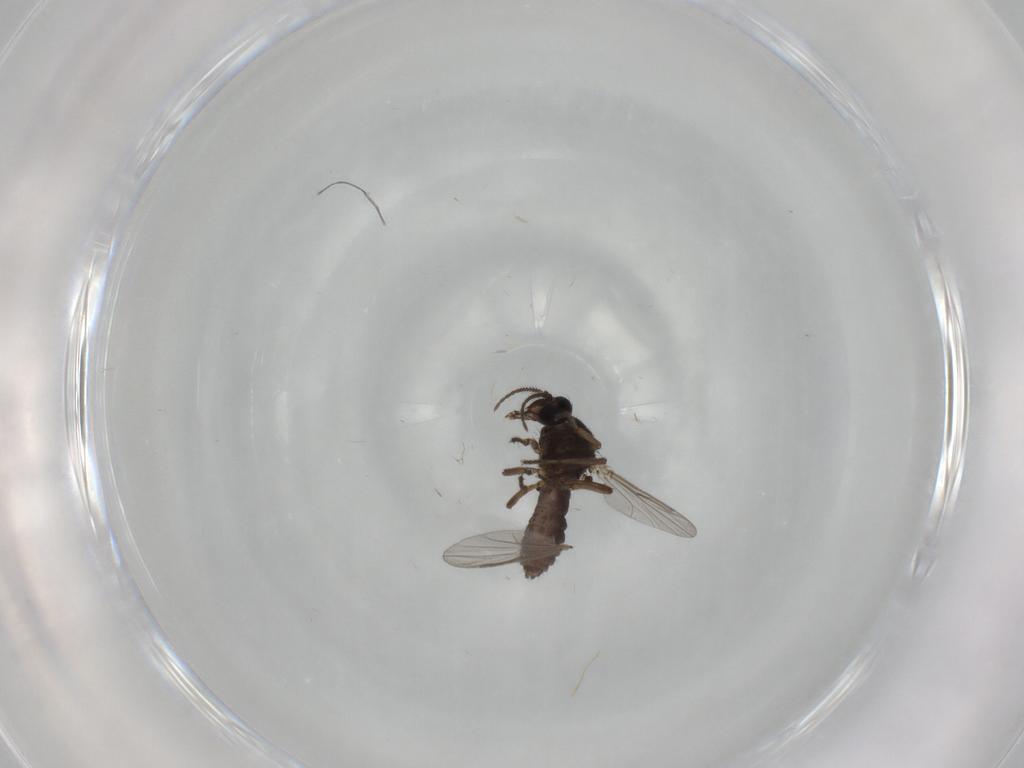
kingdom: Animalia
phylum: Arthropoda
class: Insecta
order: Diptera
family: Ceratopogonidae
